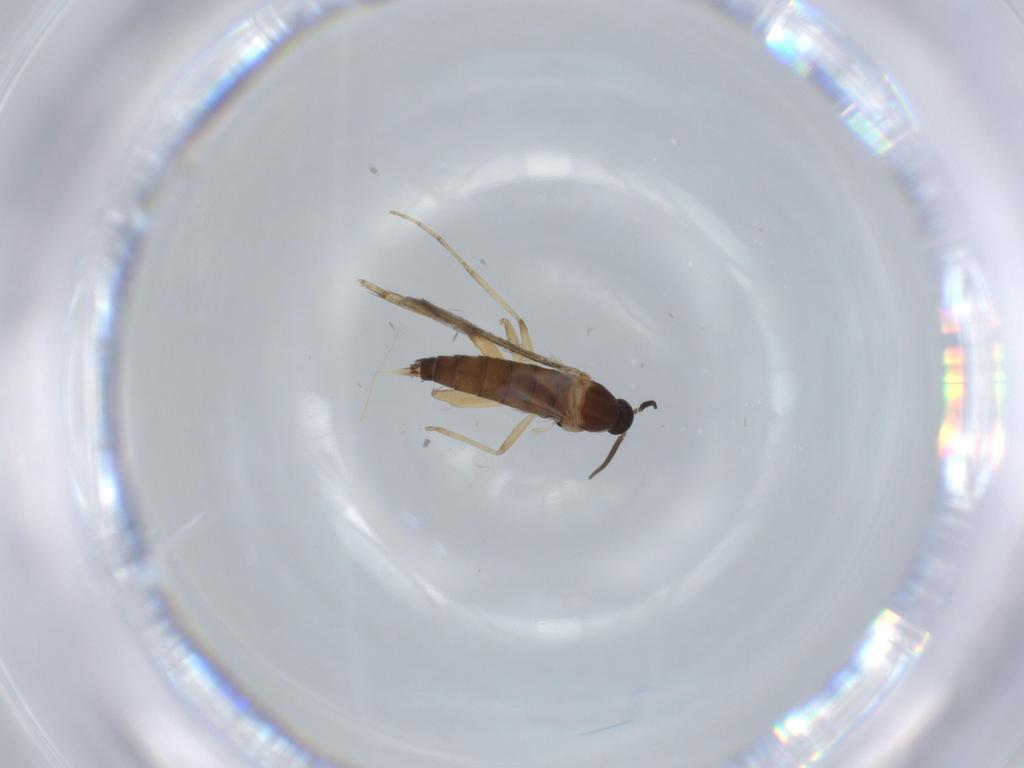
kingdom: Animalia
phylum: Arthropoda
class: Insecta
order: Diptera
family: Cecidomyiidae
